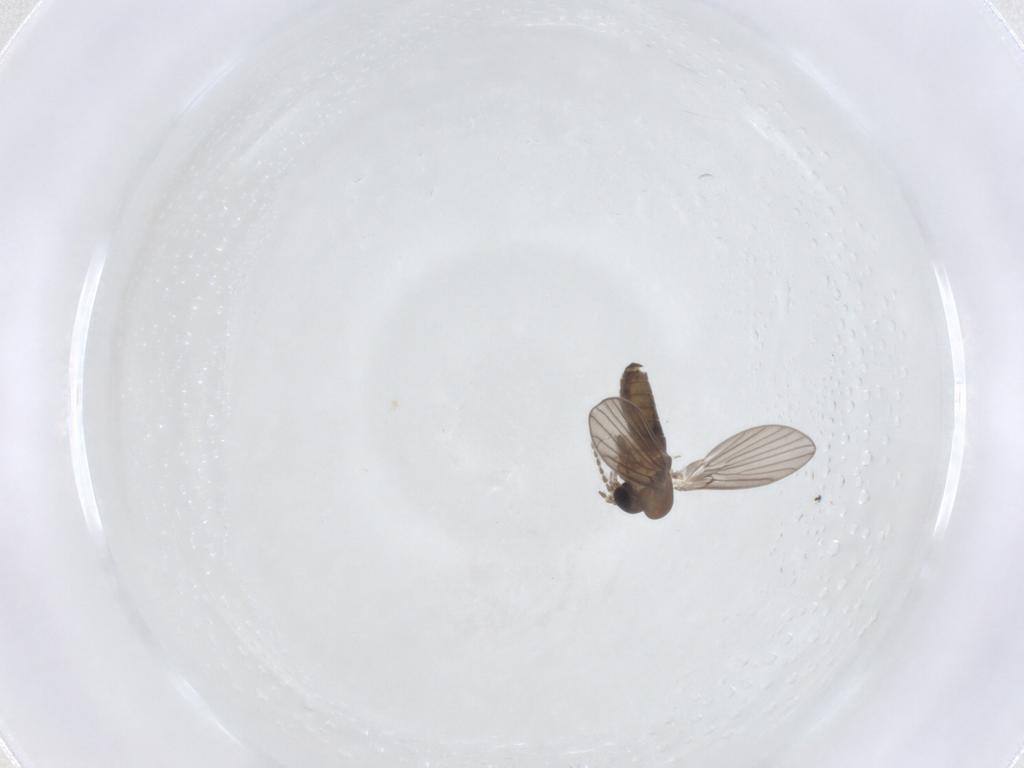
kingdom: Animalia
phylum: Arthropoda
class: Insecta
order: Diptera
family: Psychodidae
